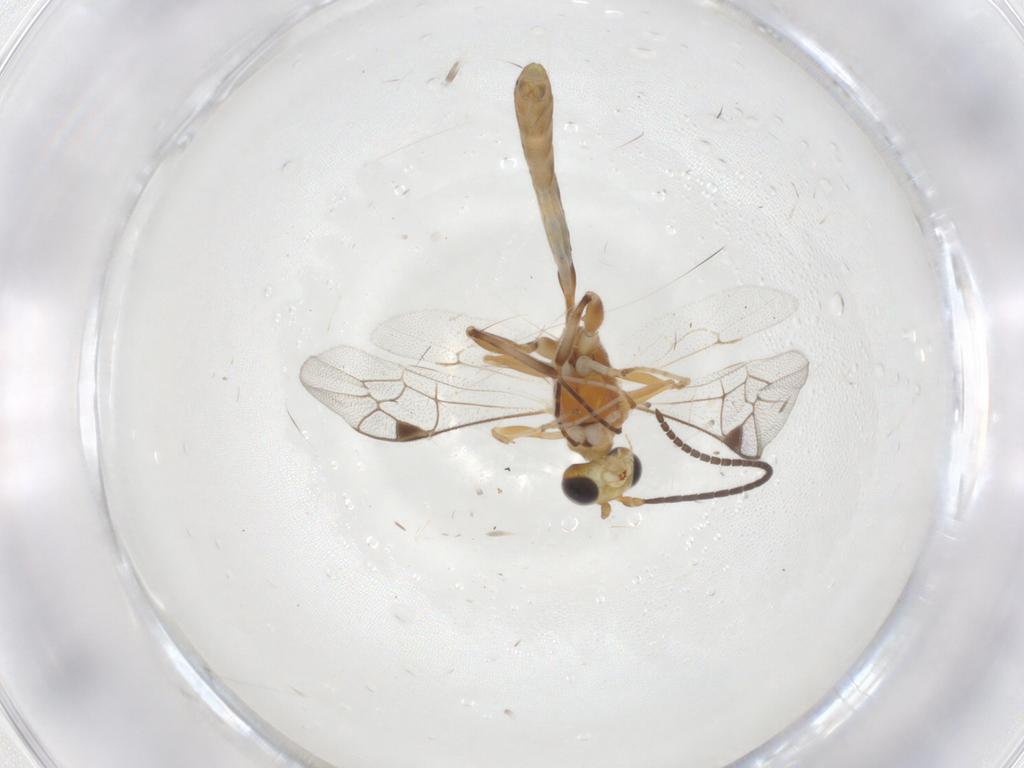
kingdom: Animalia
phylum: Arthropoda
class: Insecta
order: Hymenoptera
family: Ichneumonidae
